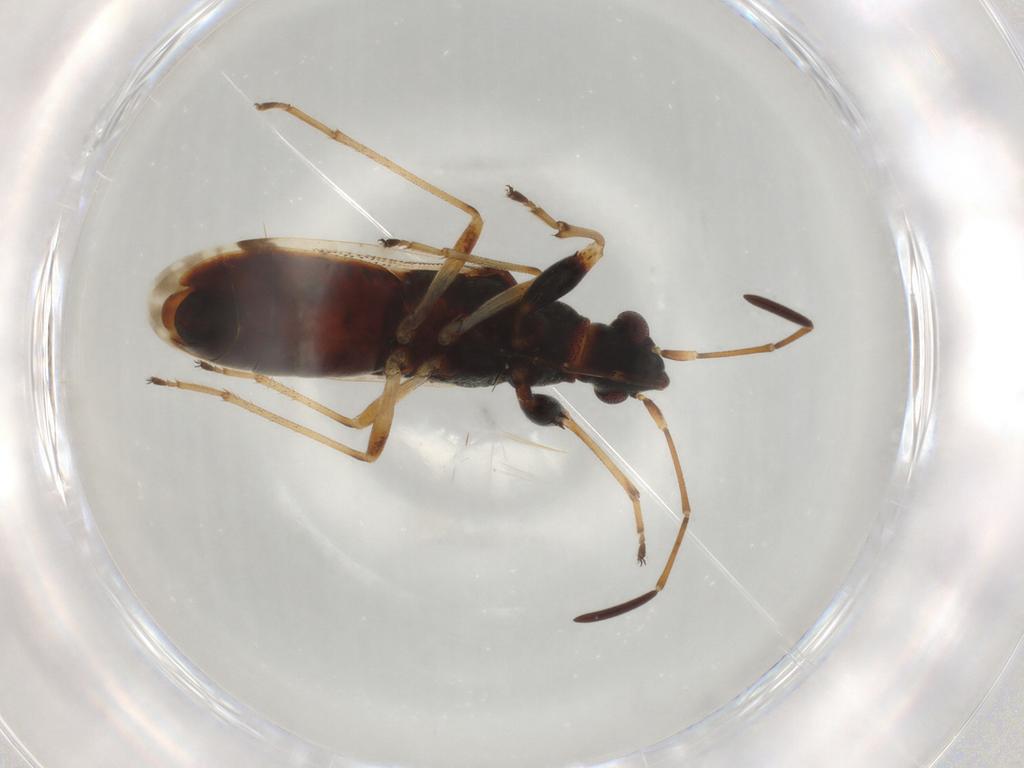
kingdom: Animalia
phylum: Arthropoda
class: Insecta
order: Hemiptera
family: Rhyparochromidae
